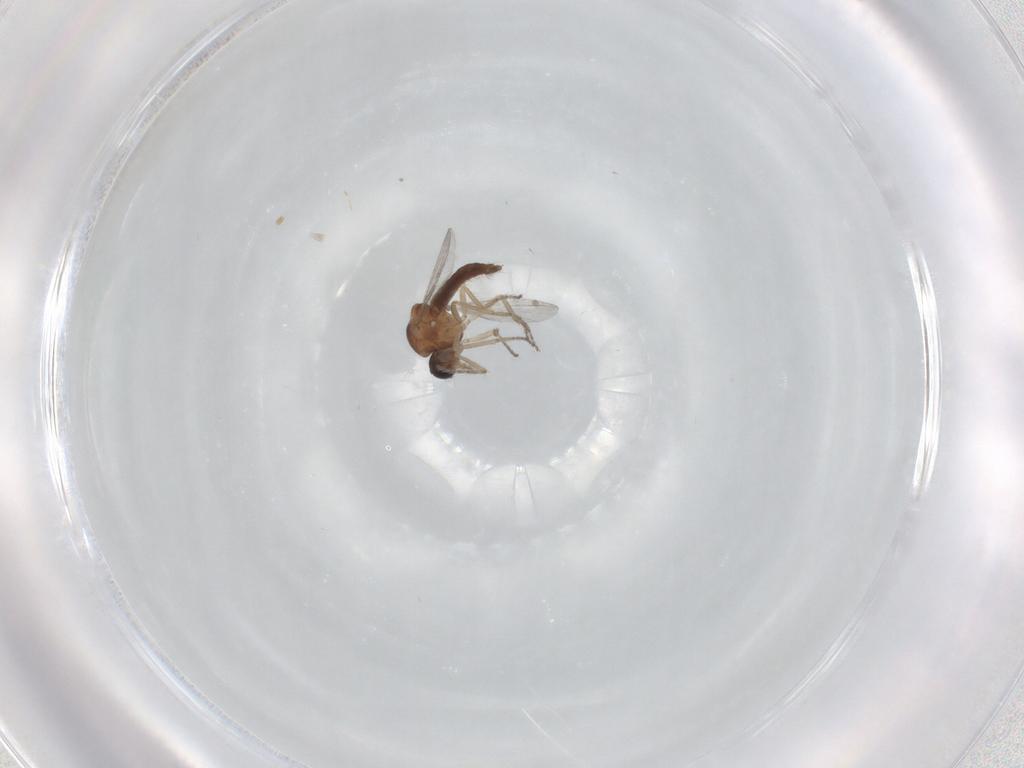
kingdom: Animalia
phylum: Arthropoda
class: Insecta
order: Diptera
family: Ceratopogonidae
